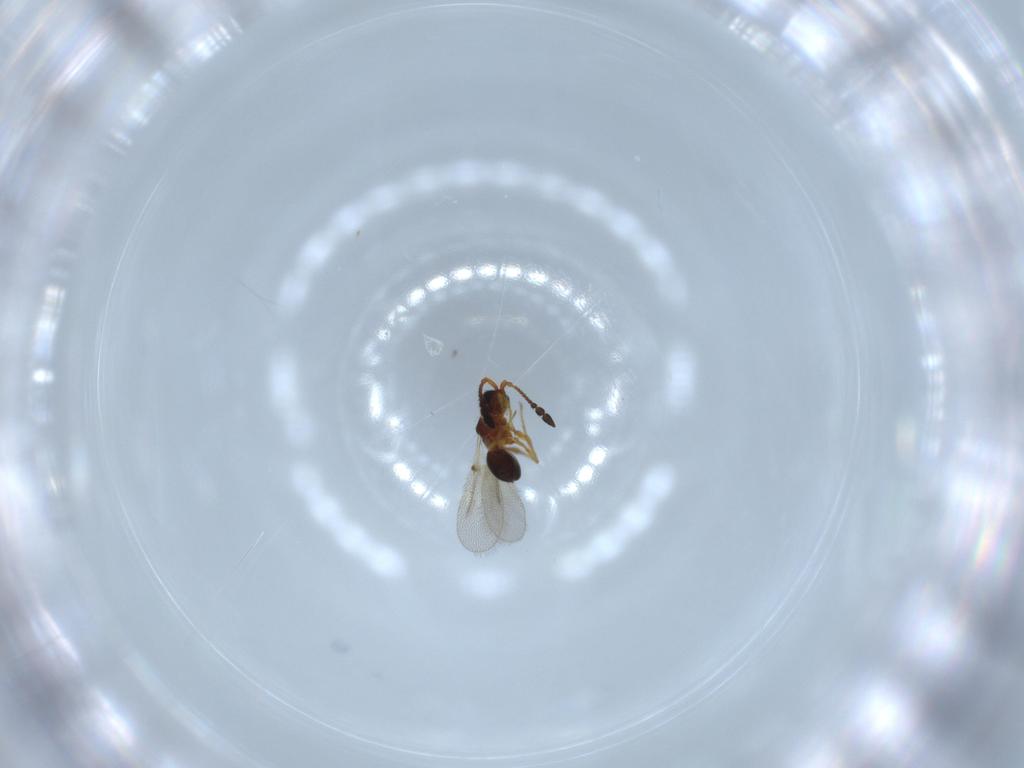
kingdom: Animalia
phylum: Arthropoda
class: Insecta
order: Hymenoptera
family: Diapriidae
